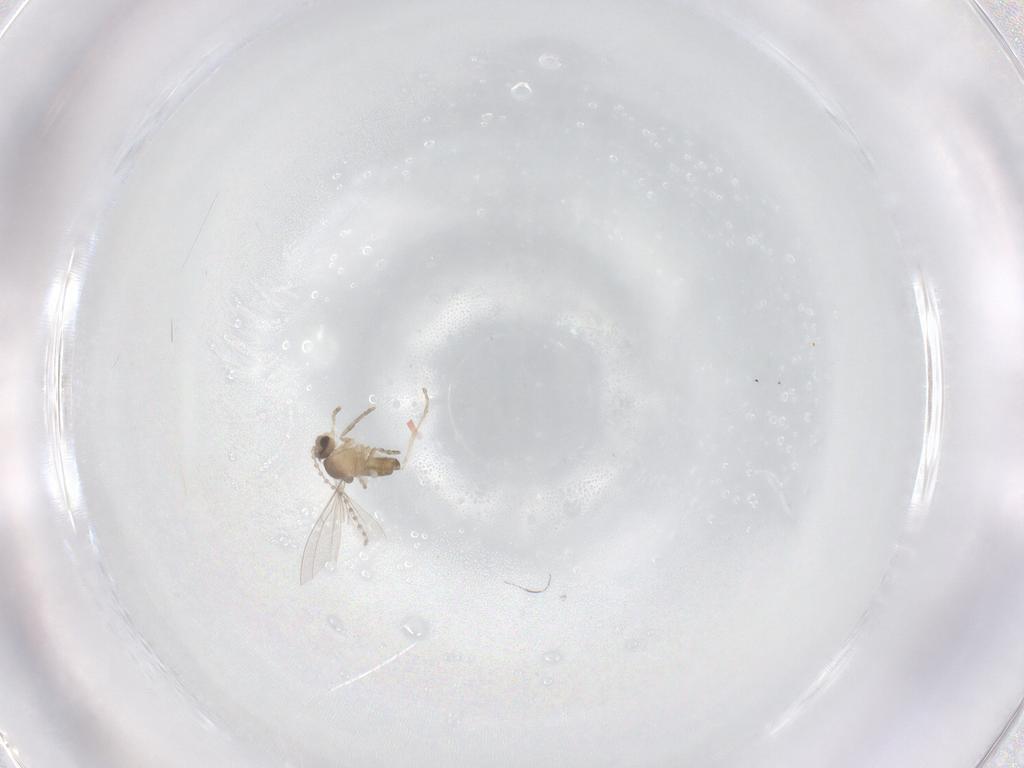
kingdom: Animalia
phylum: Arthropoda
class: Insecta
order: Diptera
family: Cecidomyiidae
